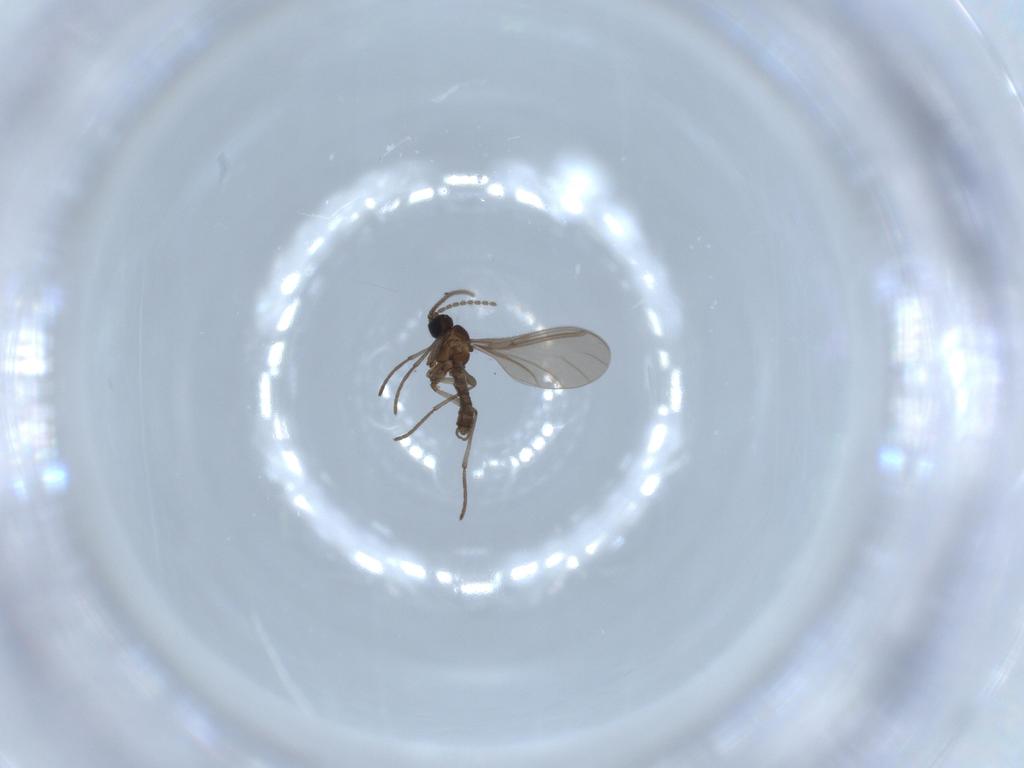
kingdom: Animalia
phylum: Arthropoda
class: Insecta
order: Diptera
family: Sciaridae
